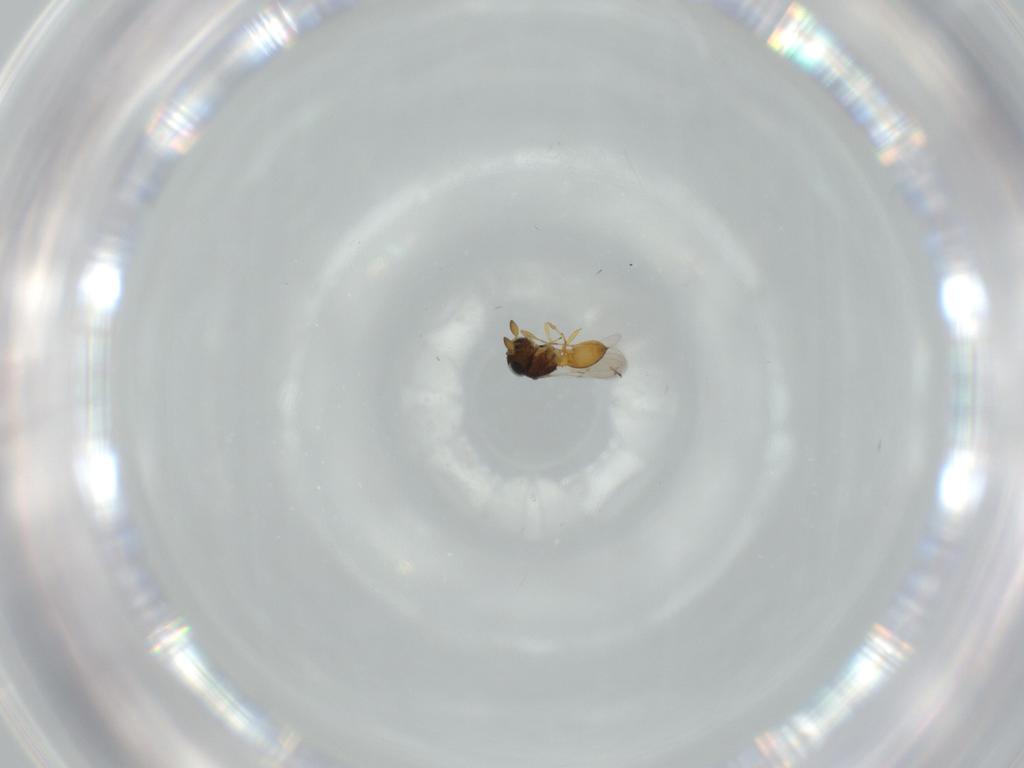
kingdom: Animalia
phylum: Arthropoda
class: Insecta
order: Hymenoptera
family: Scelionidae
